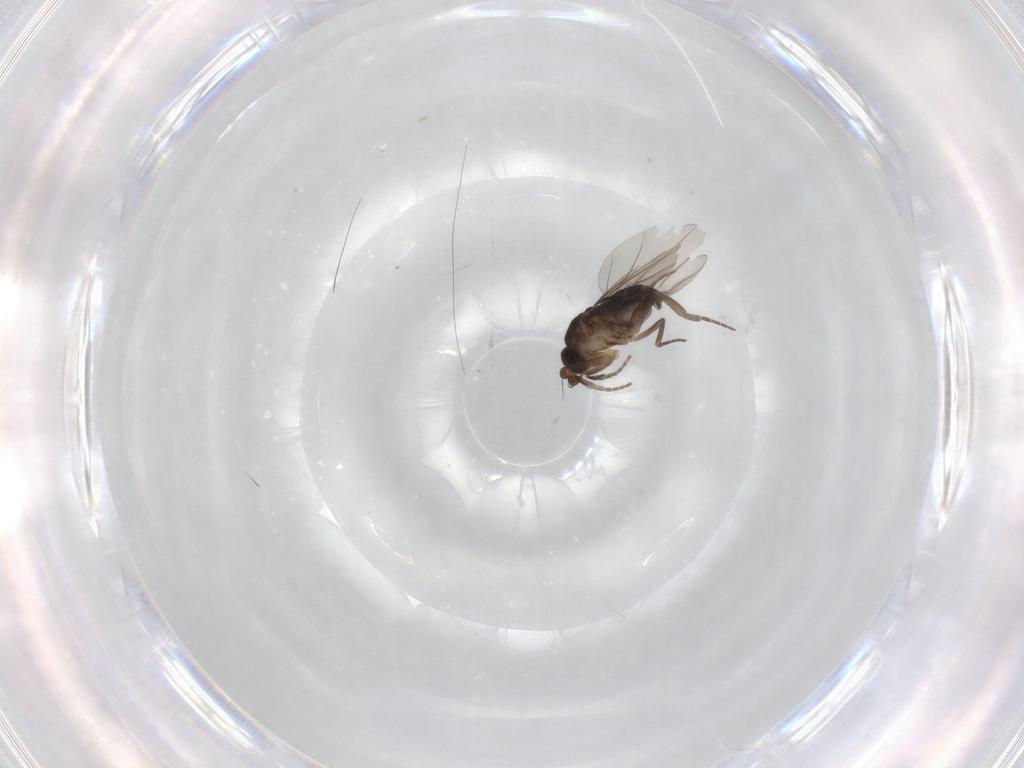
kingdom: Animalia
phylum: Arthropoda
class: Insecta
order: Diptera
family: Phoridae
